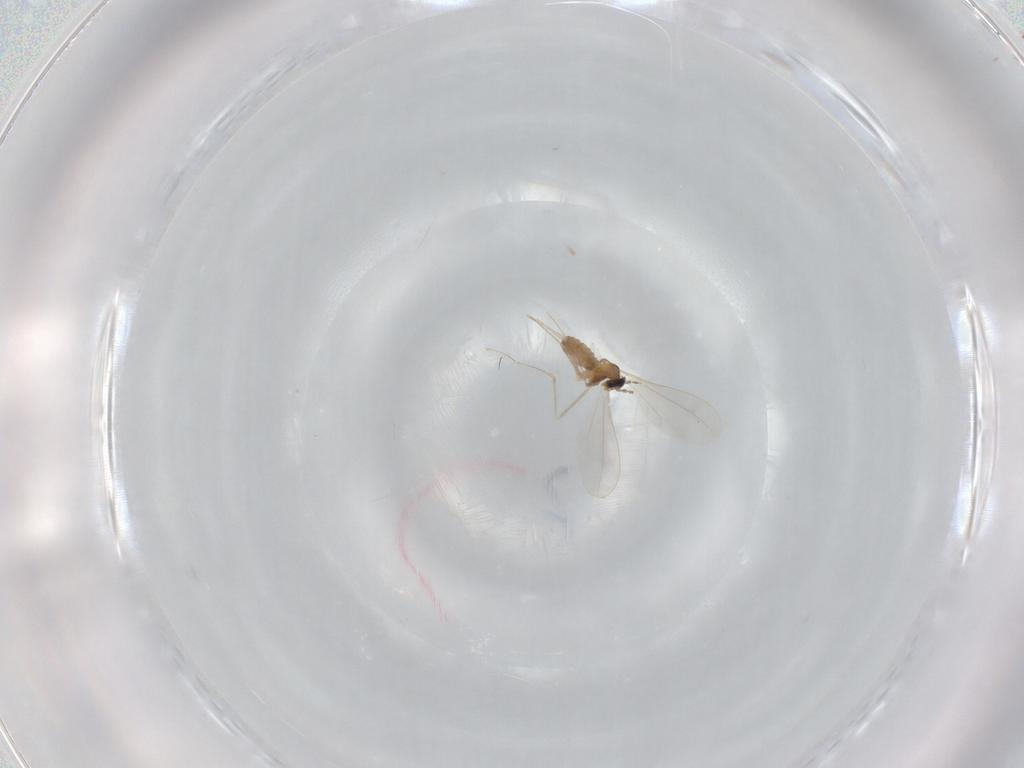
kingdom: Animalia
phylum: Arthropoda
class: Insecta
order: Diptera
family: Cecidomyiidae
